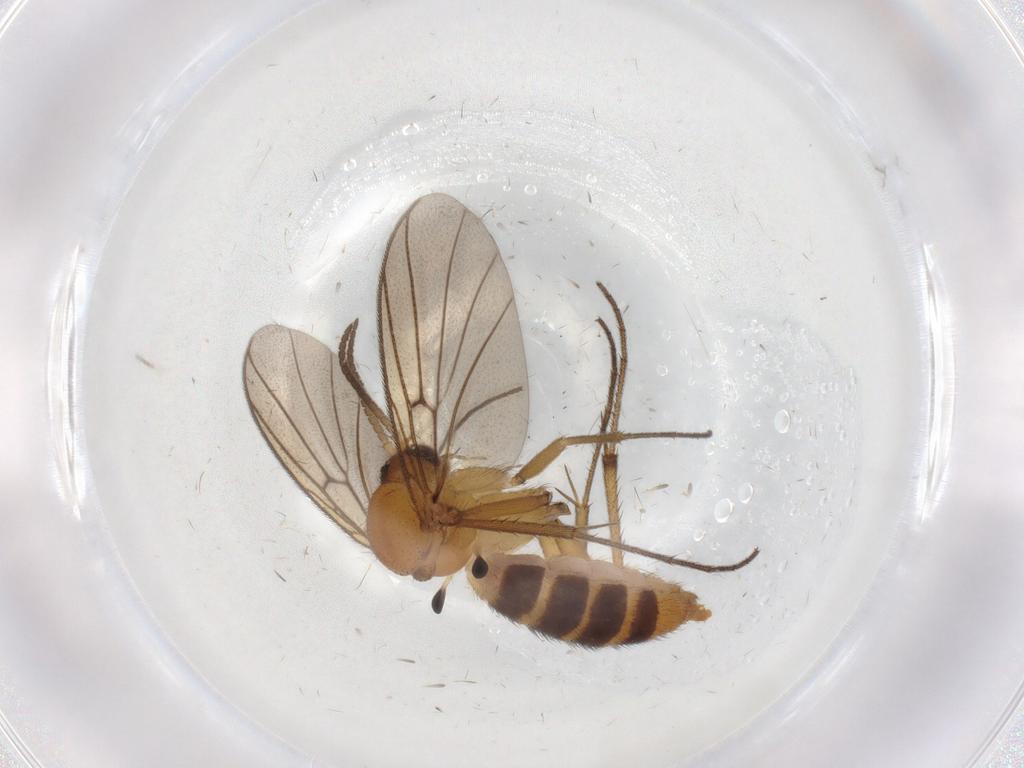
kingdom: Animalia
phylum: Arthropoda
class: Insecta
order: Diptera
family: Mycetophilidae
